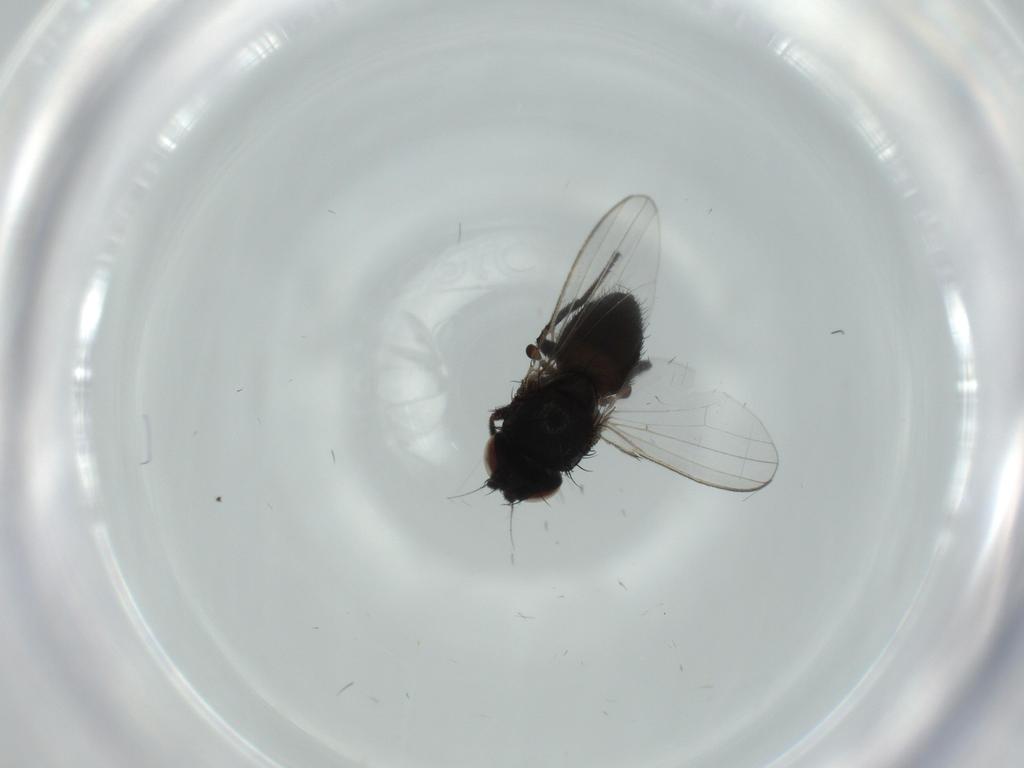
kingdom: Animalia
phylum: Arthropoda
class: Insecta
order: Diptera
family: Milichiidae
